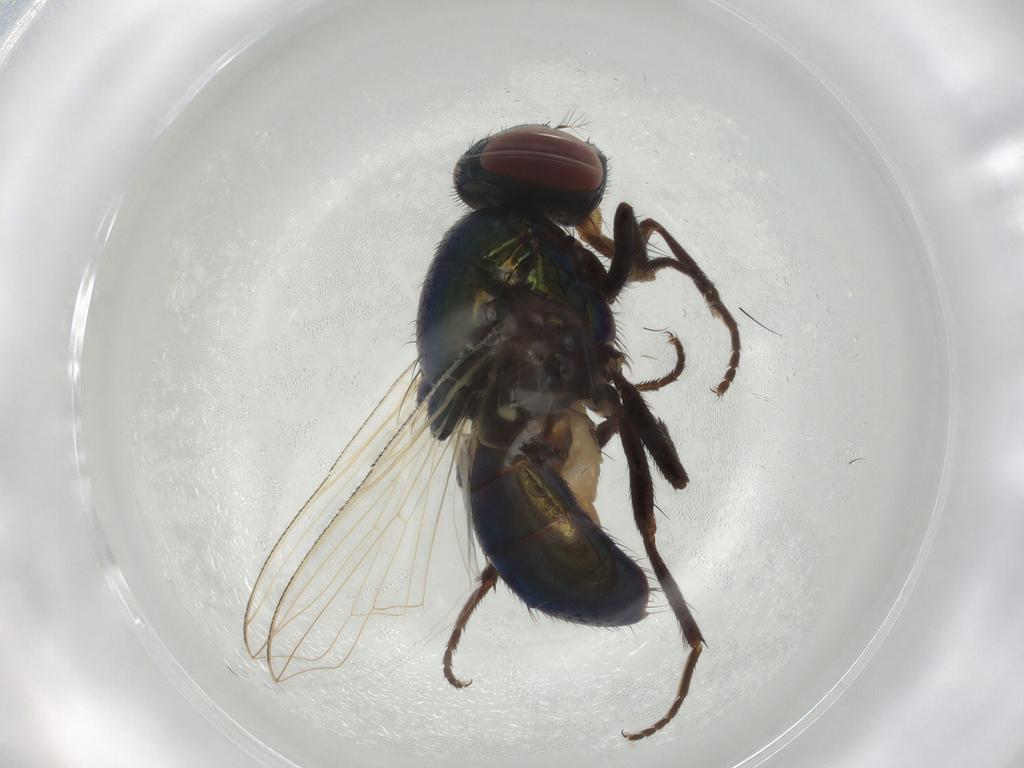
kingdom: Animalia
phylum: Arthropoda
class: Insecta
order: Diptera
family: Muscidae
